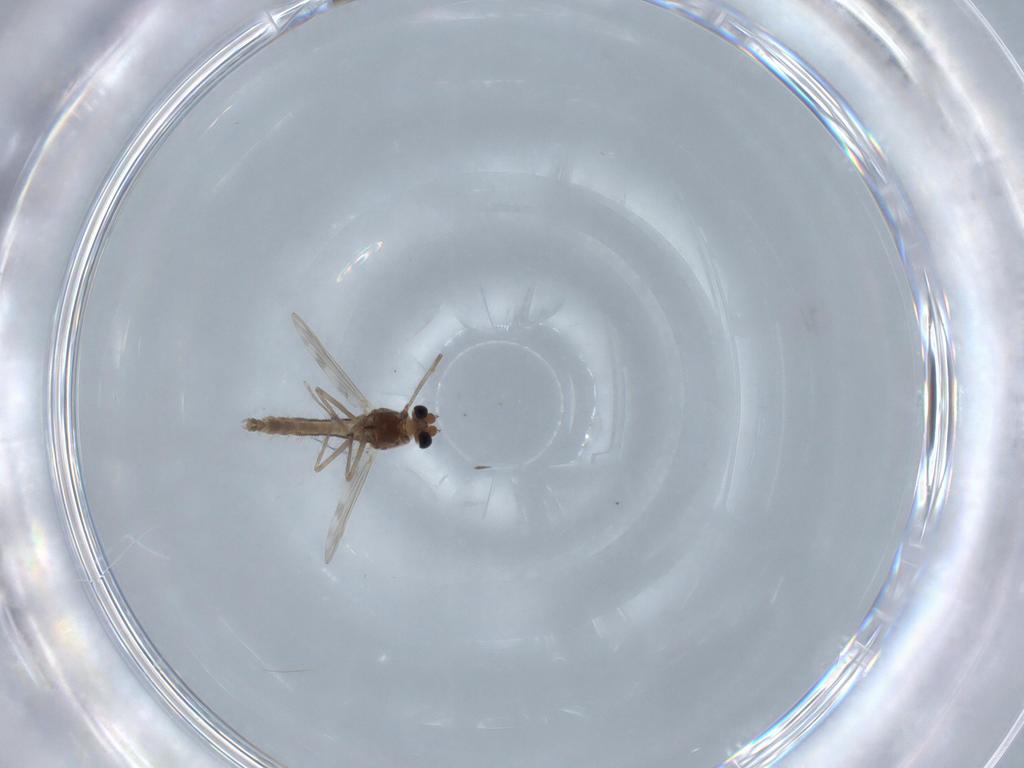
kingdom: Animalia
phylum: Arthropoda
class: Insecta
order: Diptera
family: Chironomidae
